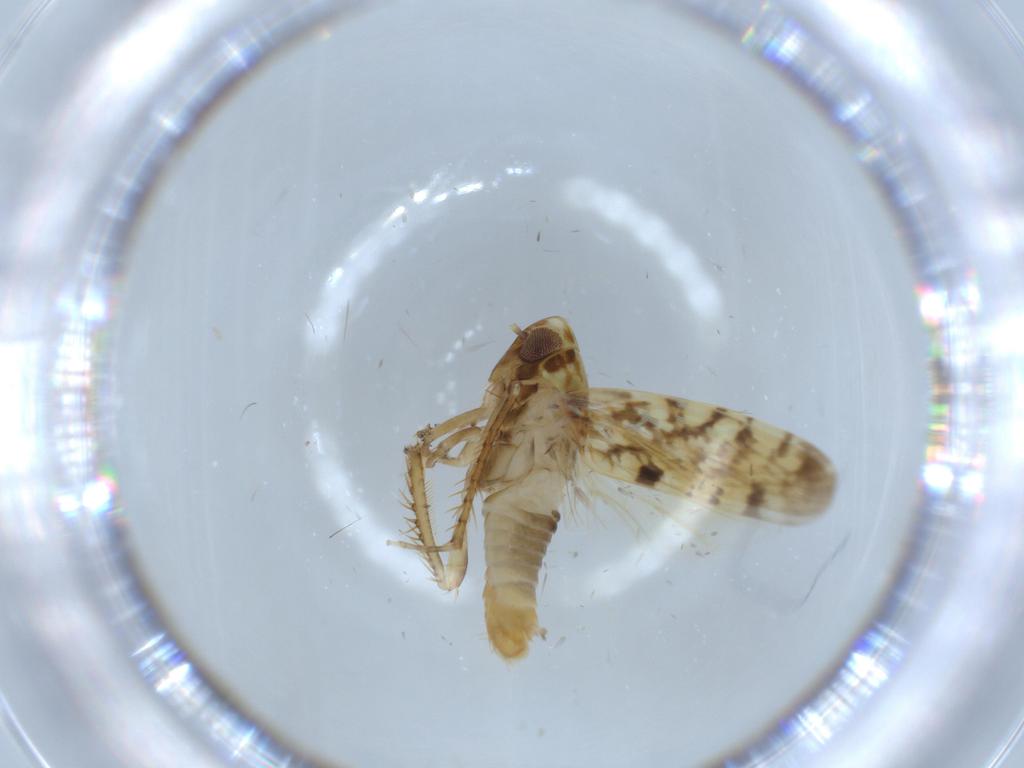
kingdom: Animalia
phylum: Arthropoda
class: Insecta
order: Hemiptera
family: Cicadellidae
